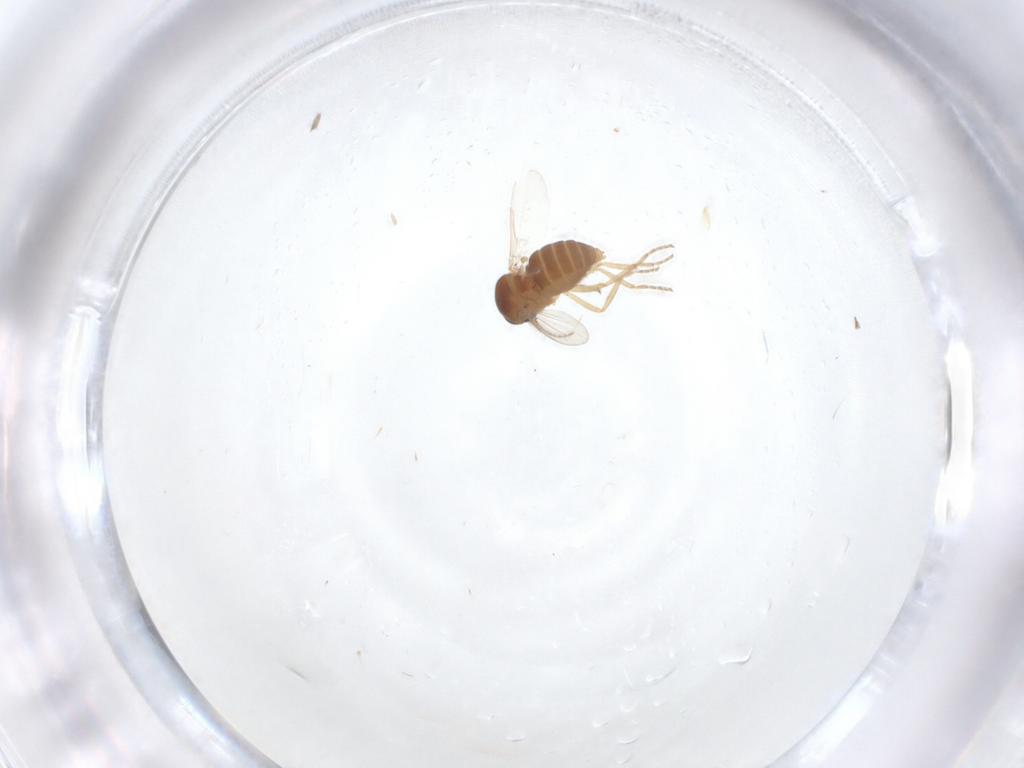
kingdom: Animalia
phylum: Arthropoda
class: Insecta
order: Diptera
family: Ceratopogonidae
